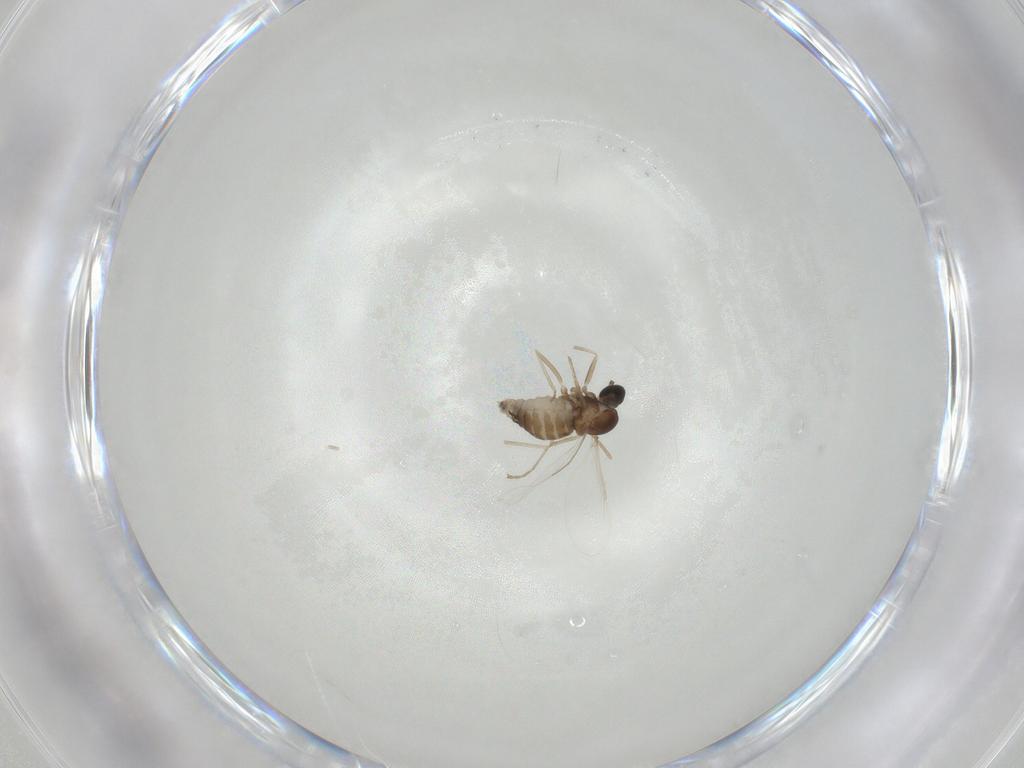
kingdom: Animalia
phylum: Arthropoda
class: Insecta
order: Diptera
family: Cecidomyiidae
